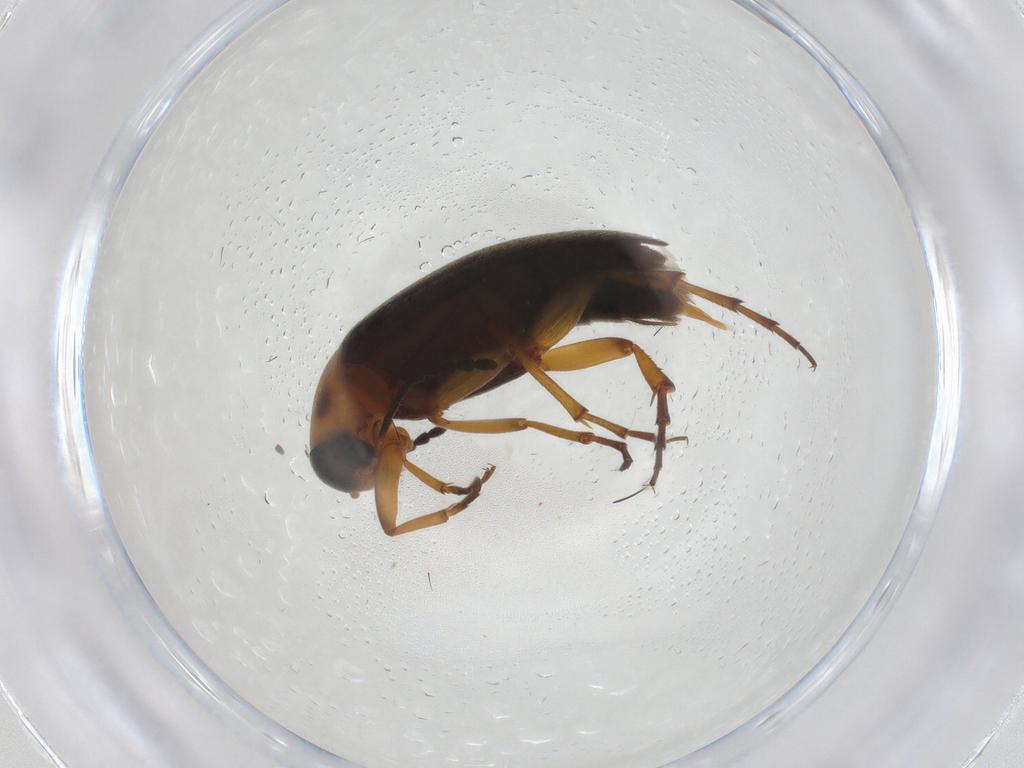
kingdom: Animalia
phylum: Arthropoda
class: Insecta
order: Coleoptera
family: Scraptiidae
